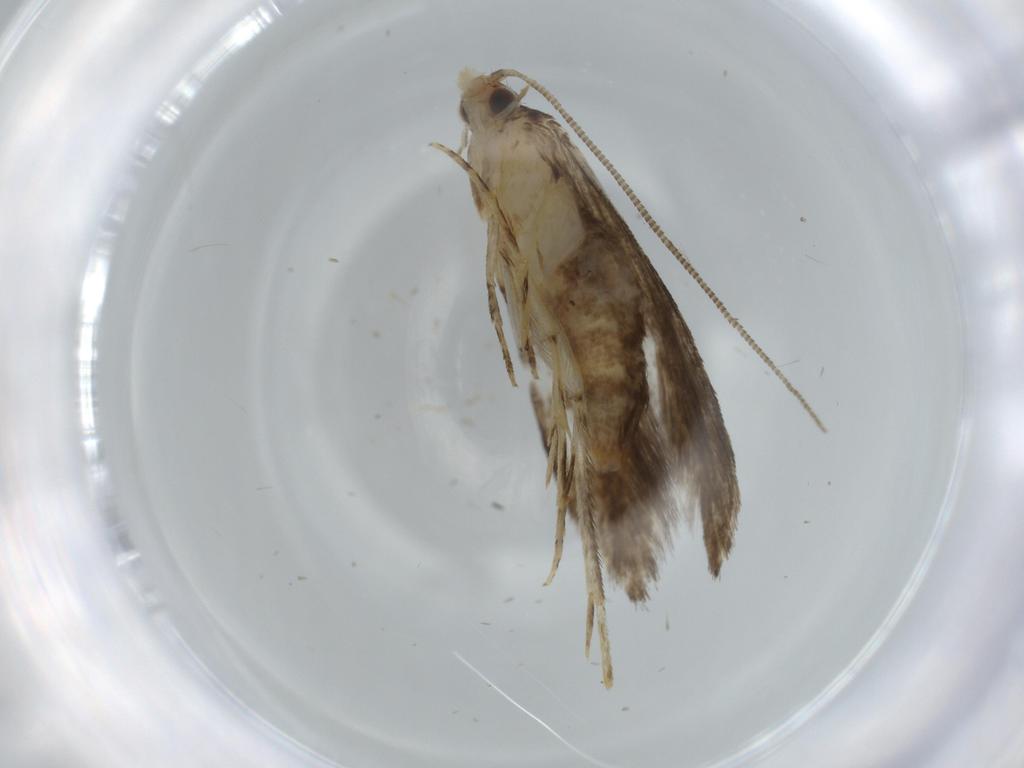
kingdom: Animalia
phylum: Arthropoda
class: Insecta
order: Lepidoptera
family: Meessiidae
